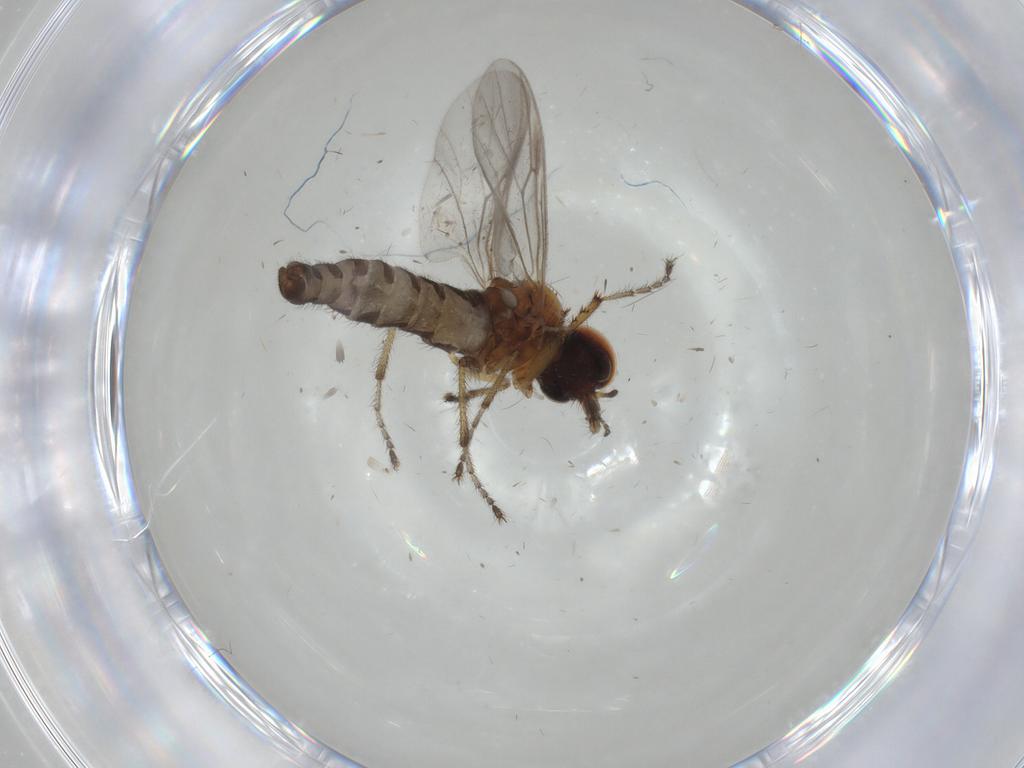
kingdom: Animalia
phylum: Arthropoda
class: Insecta
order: Diptera
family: Bibionidae
